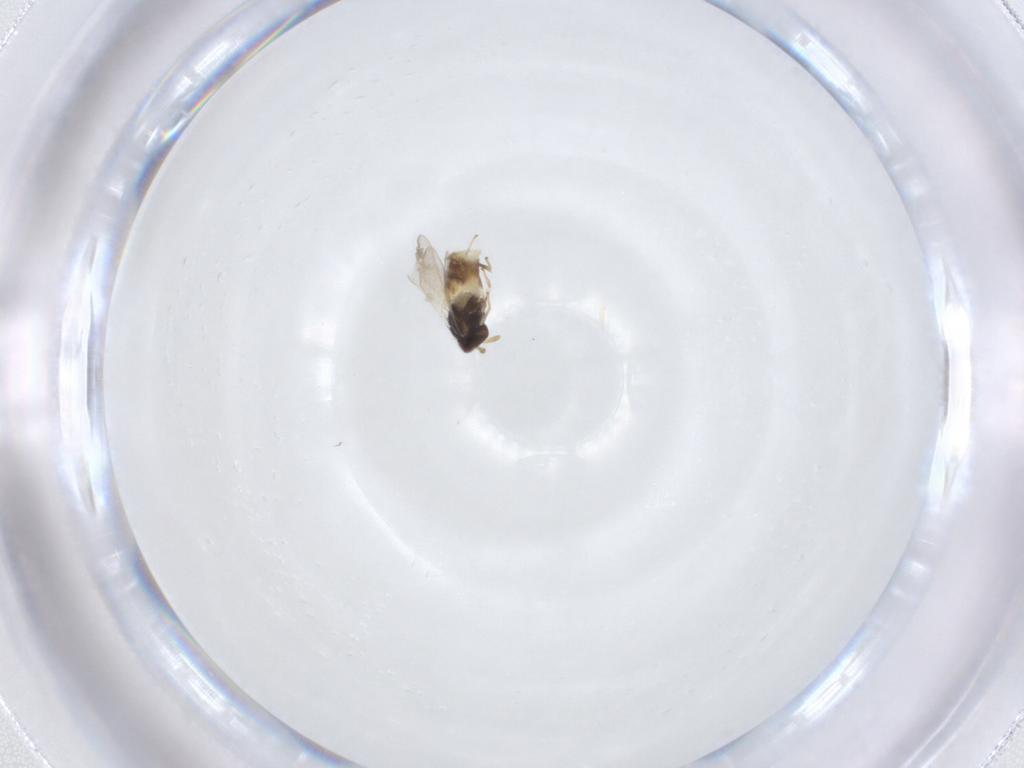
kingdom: Animalia
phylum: Arthropoda
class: Insecta
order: Hymenoptera
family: Aphelinidae
